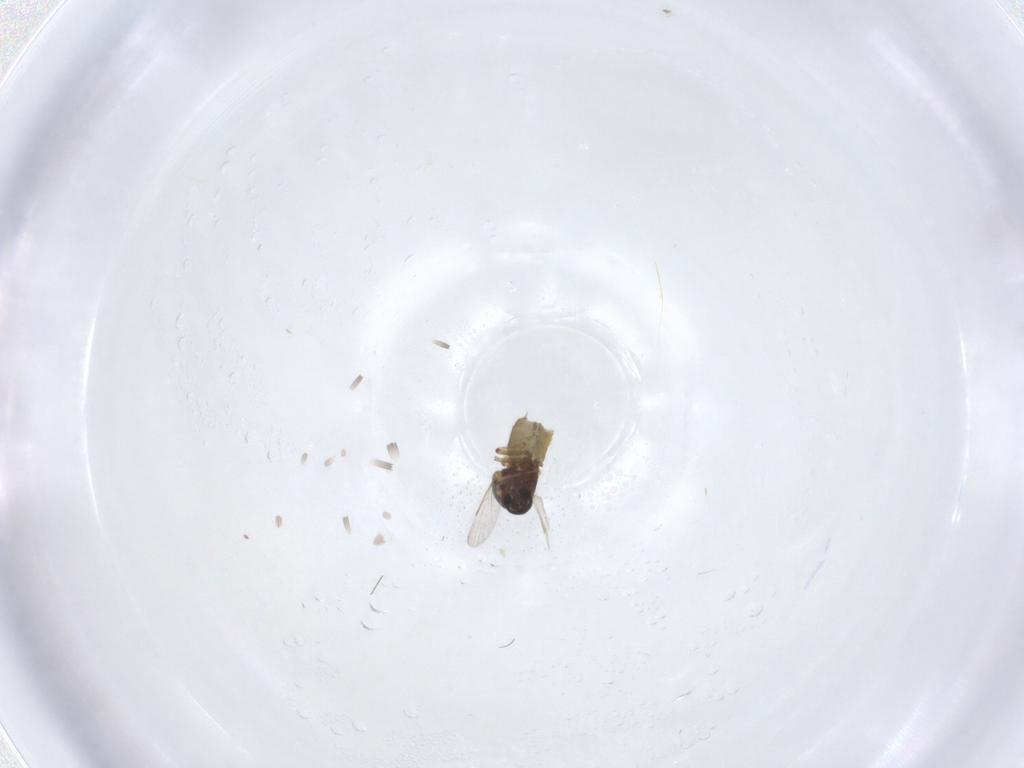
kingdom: Animalia
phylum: Arthropoda
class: Insecta
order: Diptera
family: Ceratopogonidae
